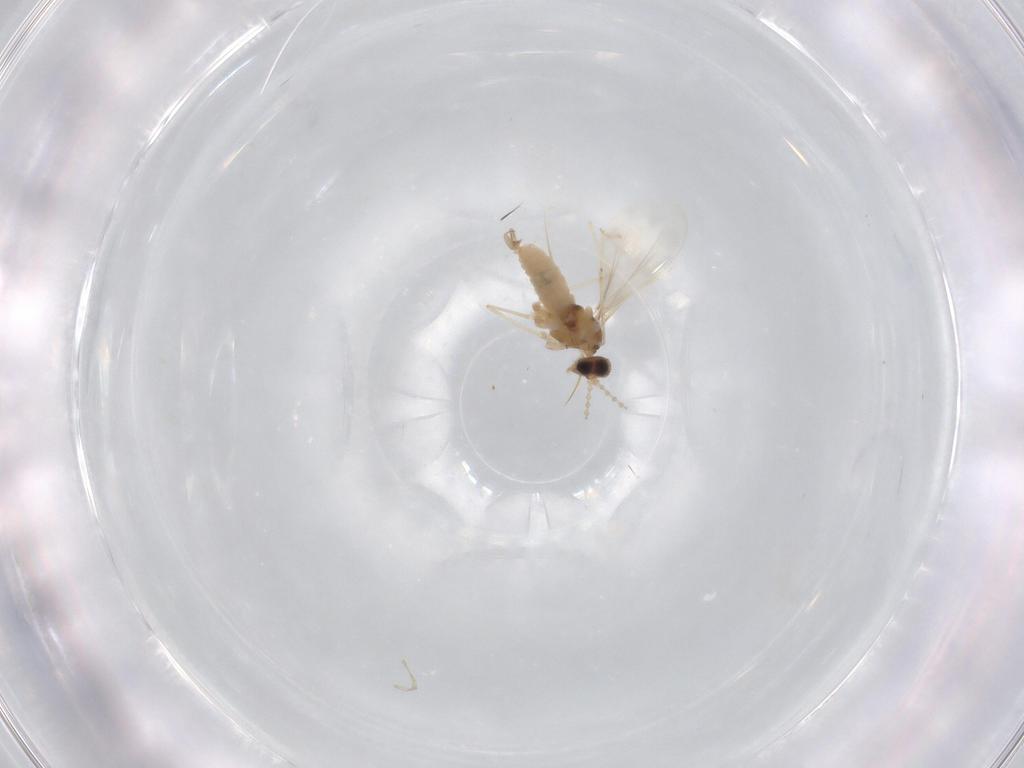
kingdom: Animalia
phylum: Arthropoda
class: Insecta
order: Diptera
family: Cecidomyiidae
